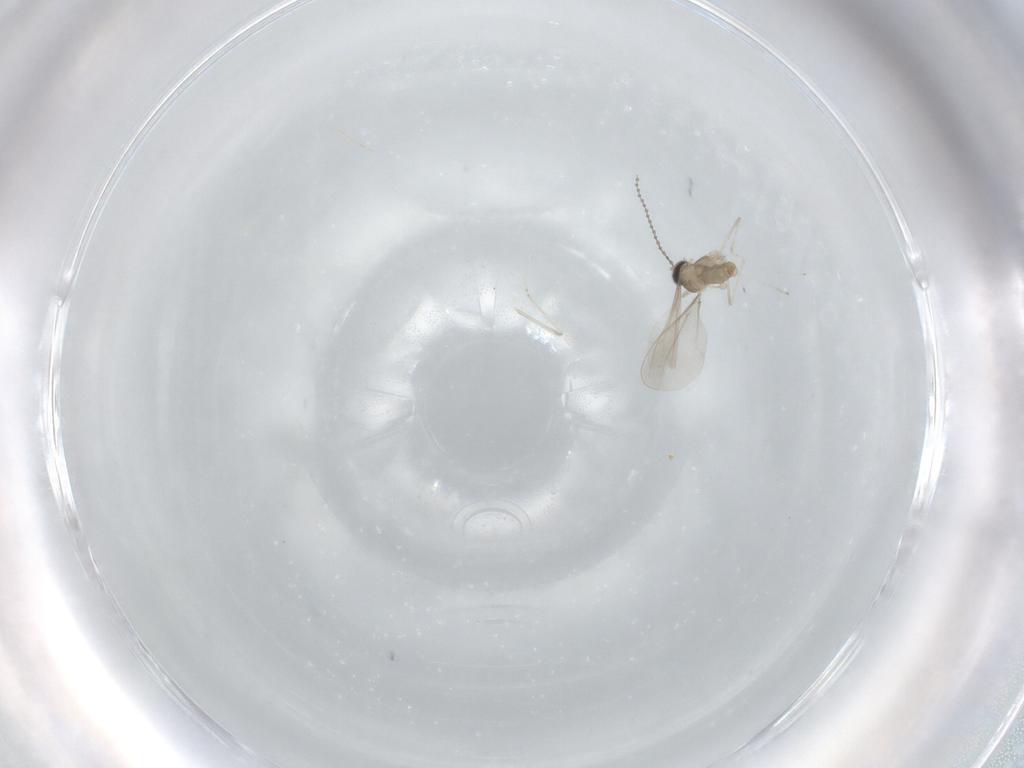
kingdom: Animalia
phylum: Arthropoda
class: Insecta
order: Diptera
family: Cecidomyiidae
